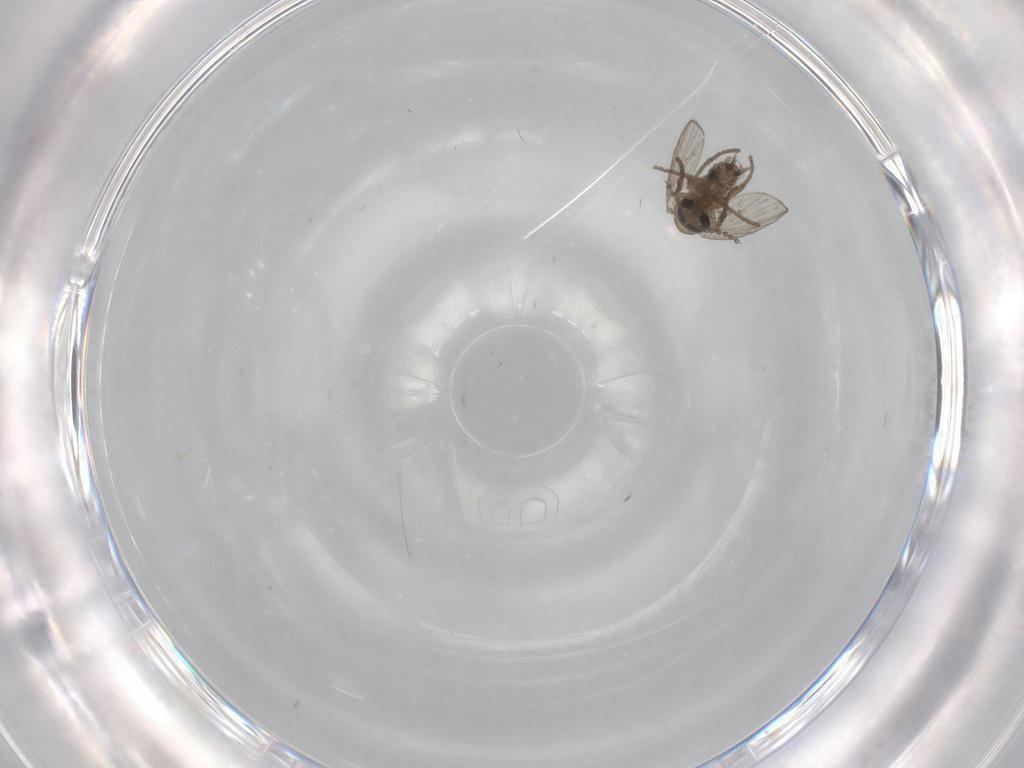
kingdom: Animalia
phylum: Arthropoda
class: Insecta
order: Diptera
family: Psychodidae
